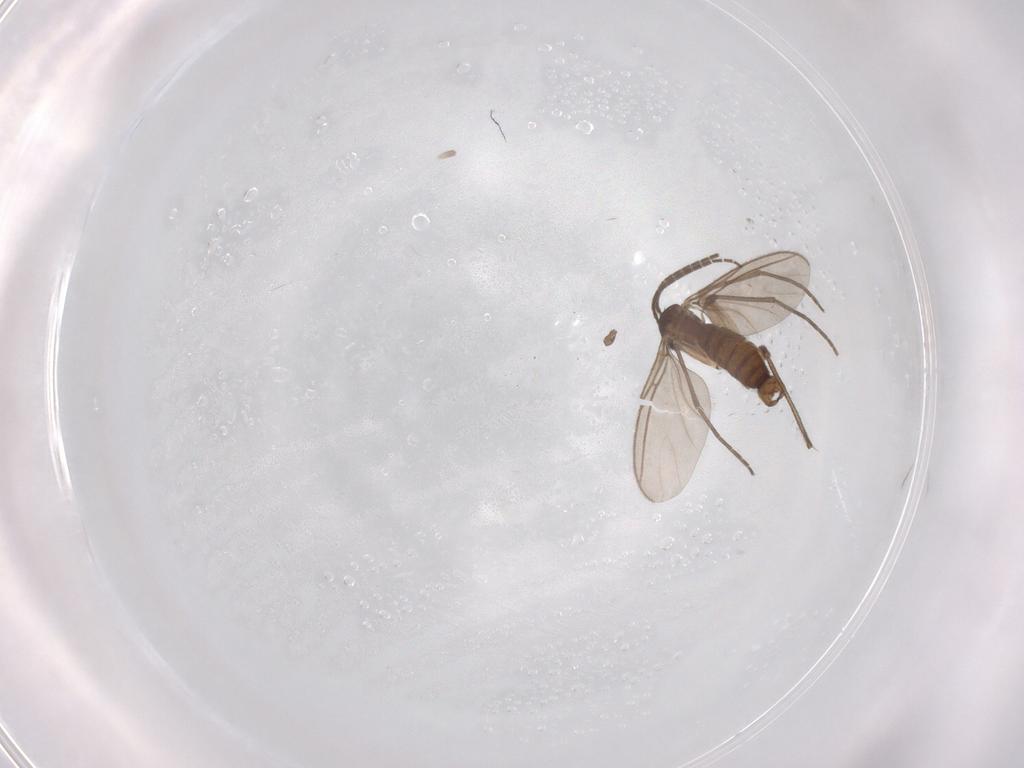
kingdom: Animalia
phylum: Arthropoda
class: Insecta
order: Diptera
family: Sciaridae
